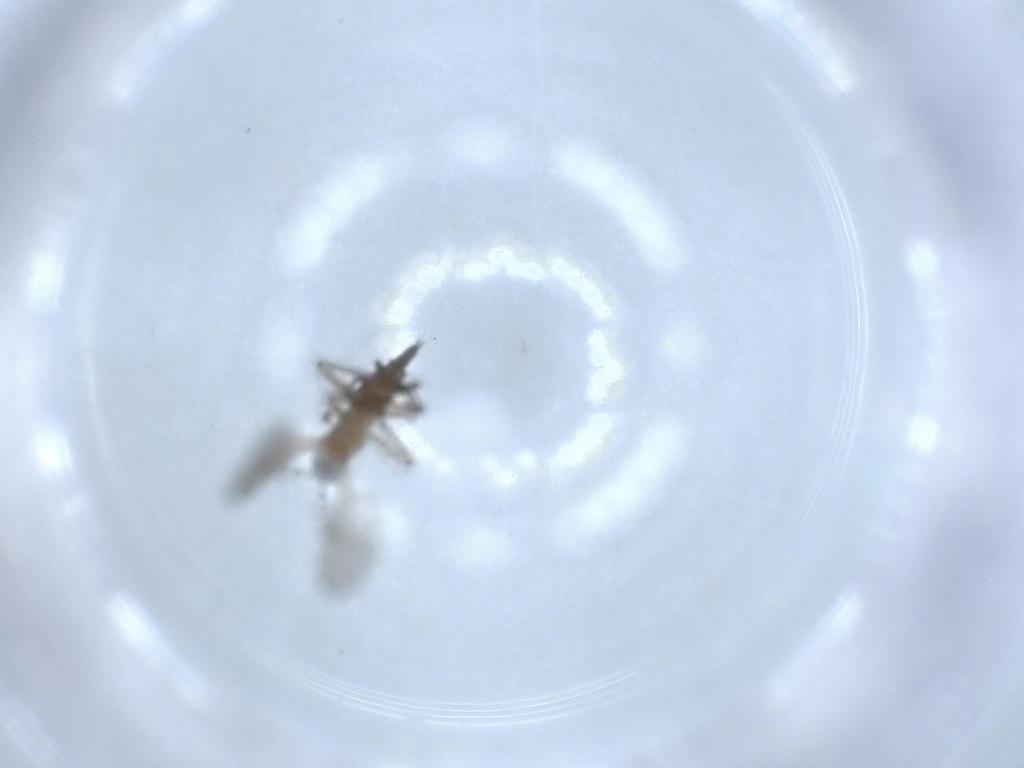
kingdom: Animalia
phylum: Arthropoda
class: Insecta
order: Diptera
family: Sciaridae
